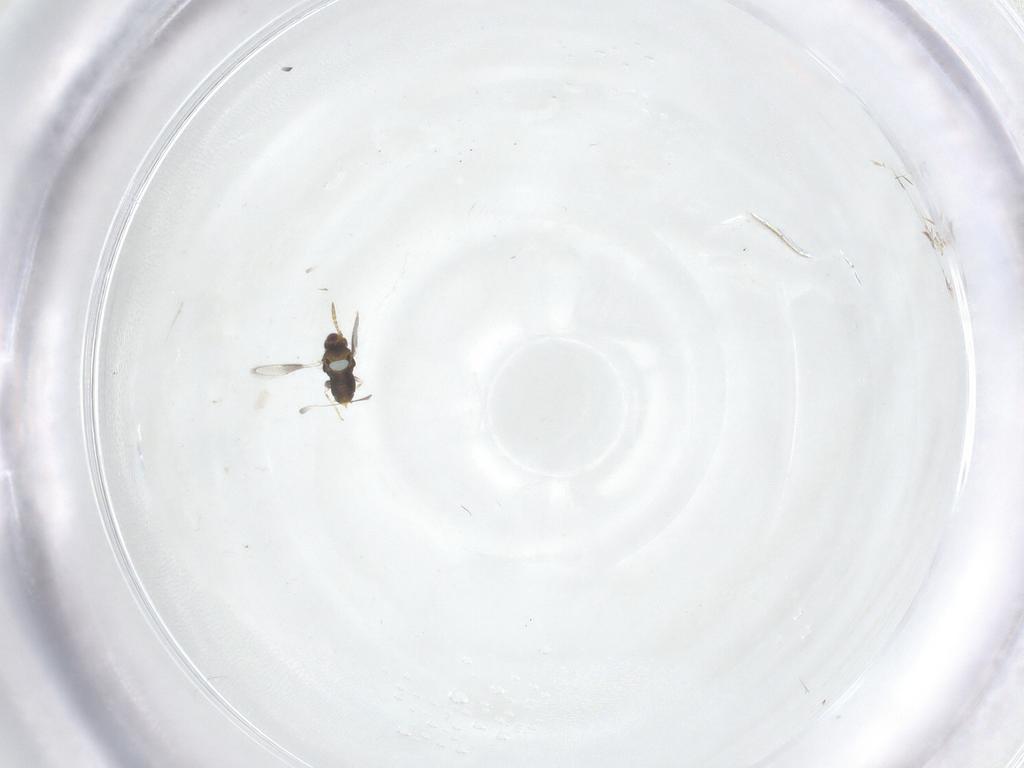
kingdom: Animalia
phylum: Arthropoda
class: Insecta
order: Hymenoptera
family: Aphelinidae
